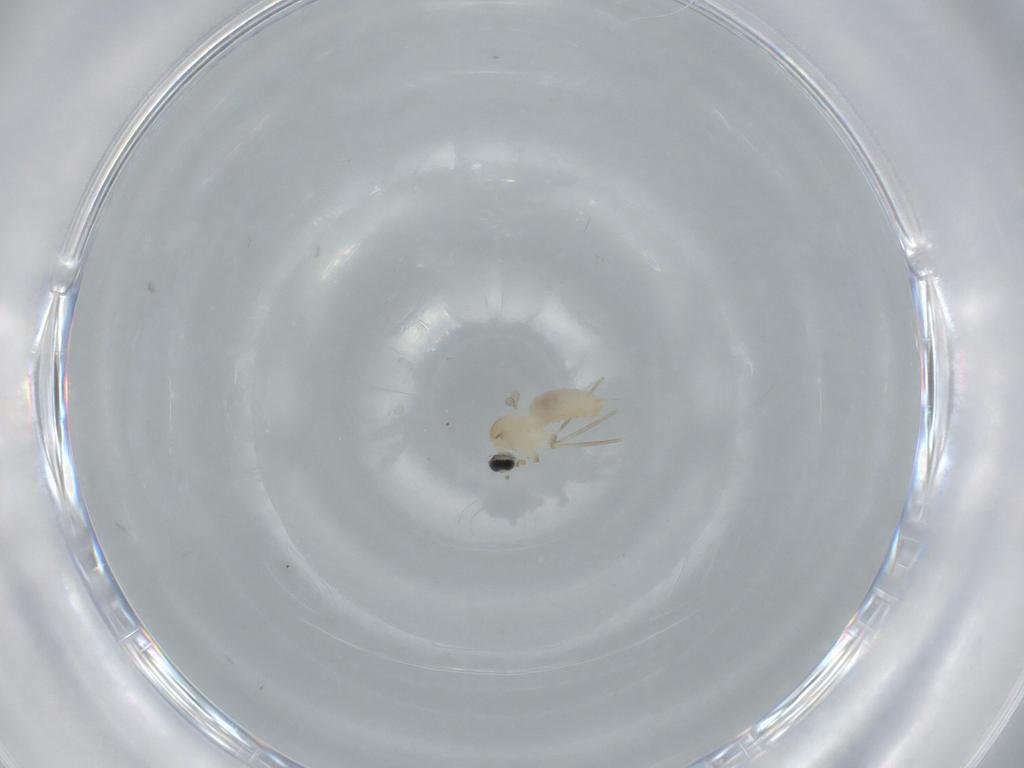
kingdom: Animalia
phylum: Arthropoda
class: Insecta
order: Diptera
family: Cecidomyiidae
